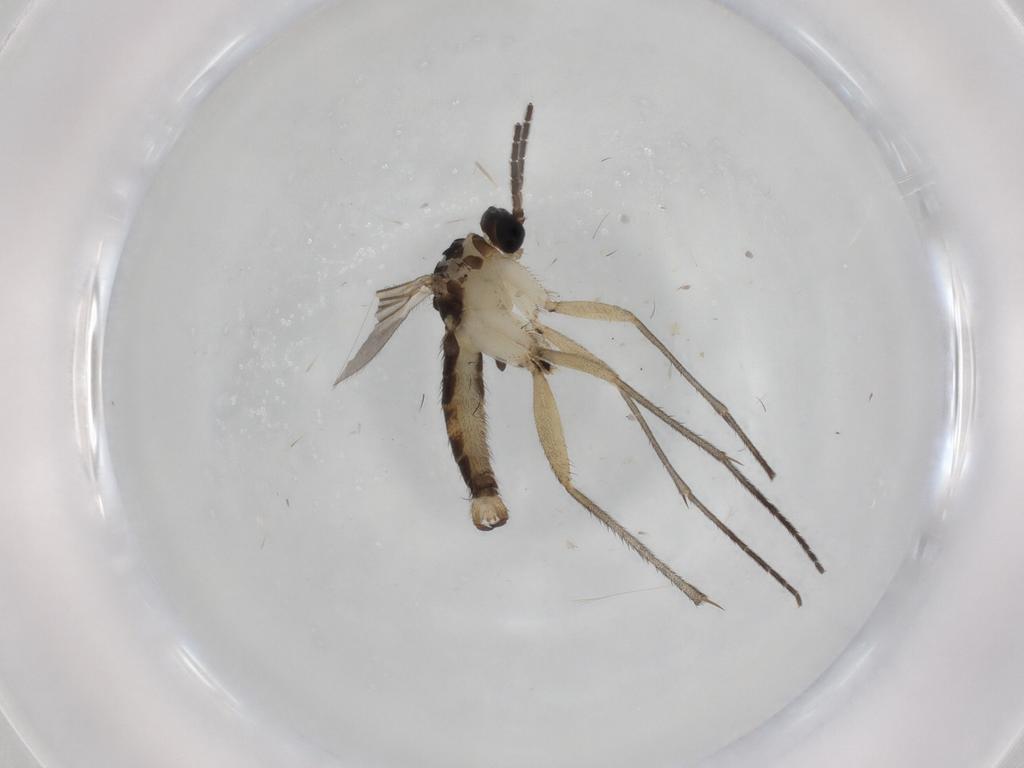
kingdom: Animalia
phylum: Arthropoda
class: Insecta
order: Diptera
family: Sciaridae
